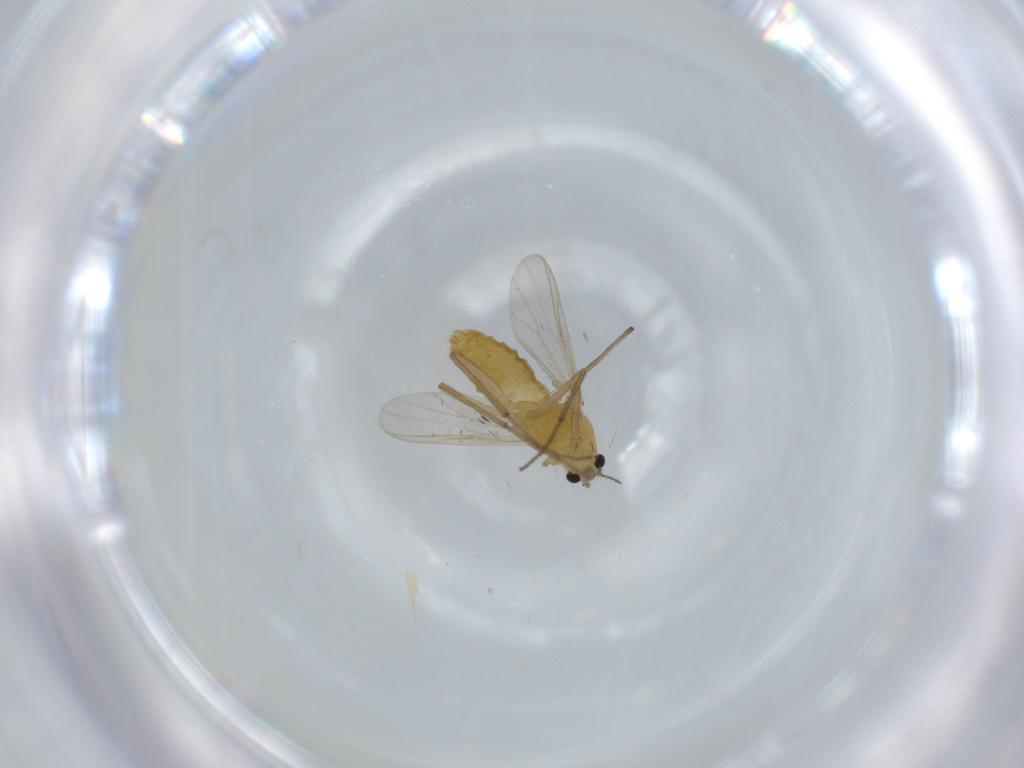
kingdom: Animalia
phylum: Arthropoda
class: Insecta
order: Diptera
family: Chironomidae
